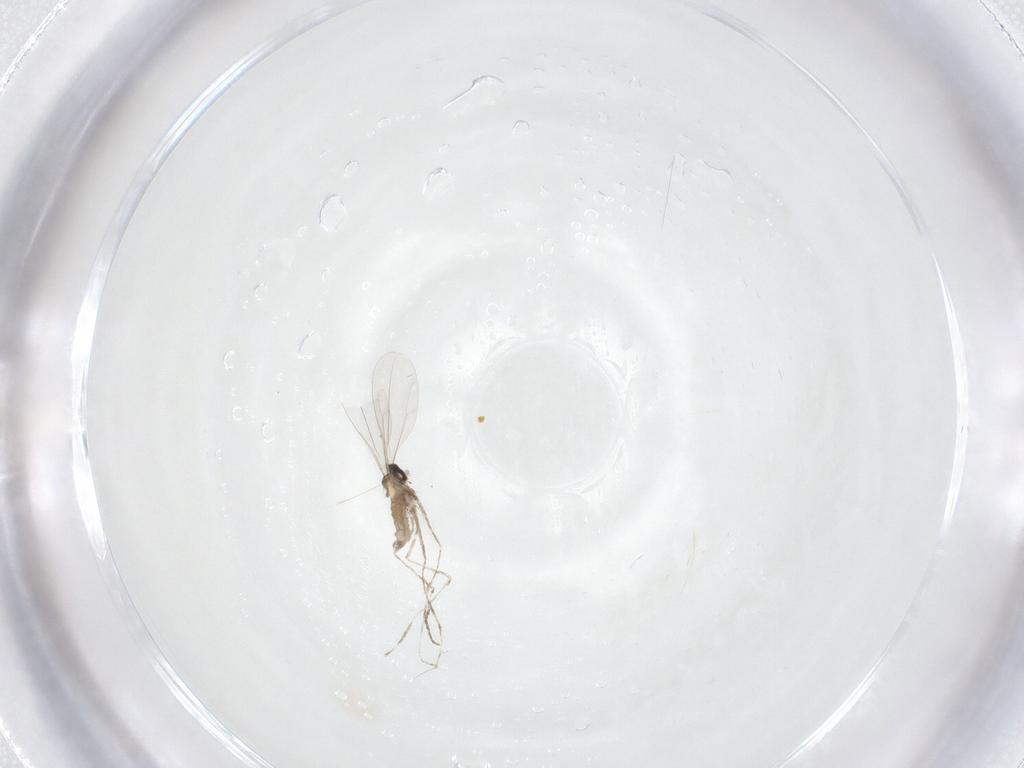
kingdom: Animalia
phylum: Arthropoda
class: Insecta
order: Diptera
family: Cecidomyiidae
